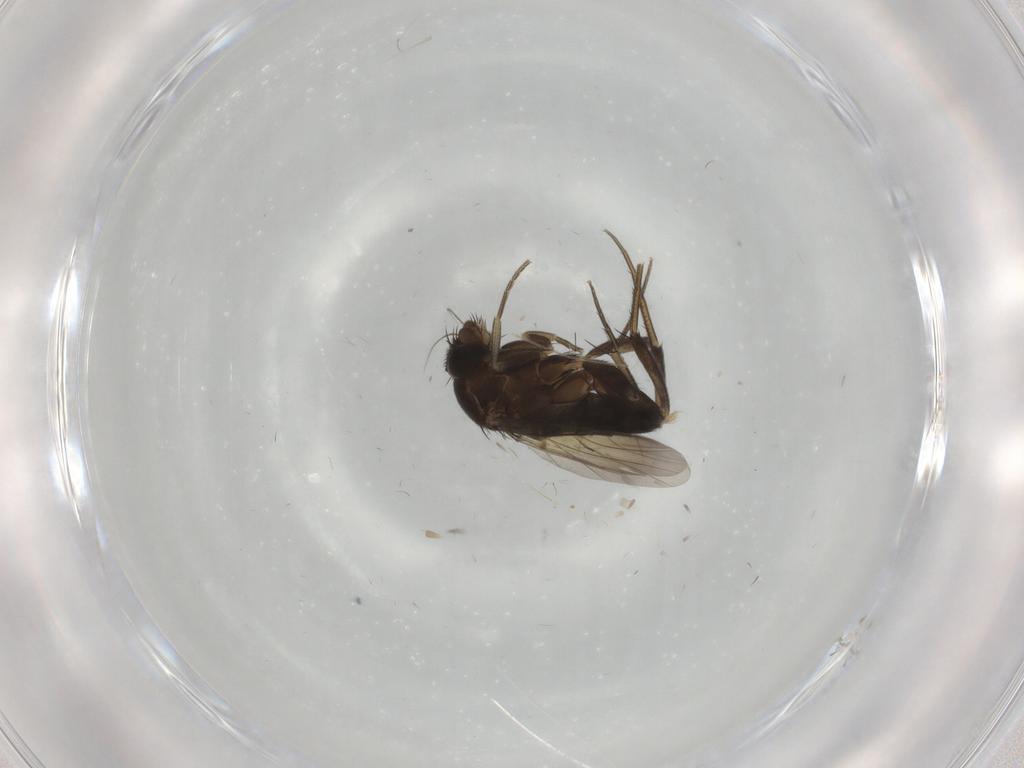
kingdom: Animalia
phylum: Arthropoda
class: Insecta
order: Diptera
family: Phoridae
